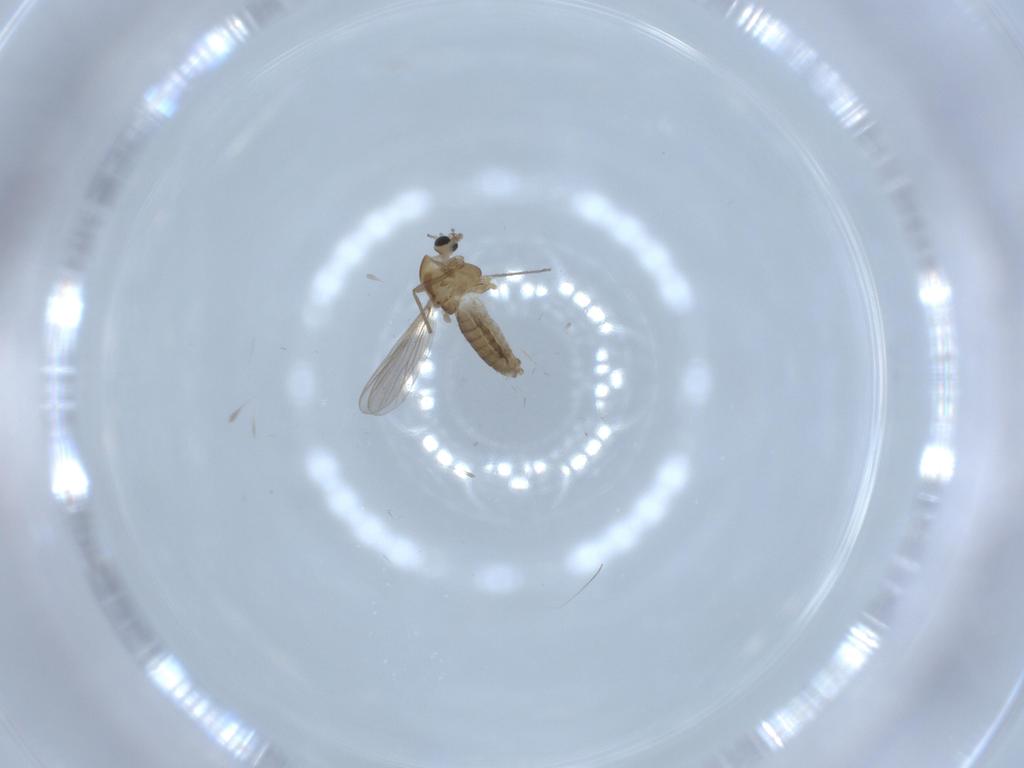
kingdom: Animalia
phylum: Arthropoda
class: Insecta
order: Diptera
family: Chironomidae
